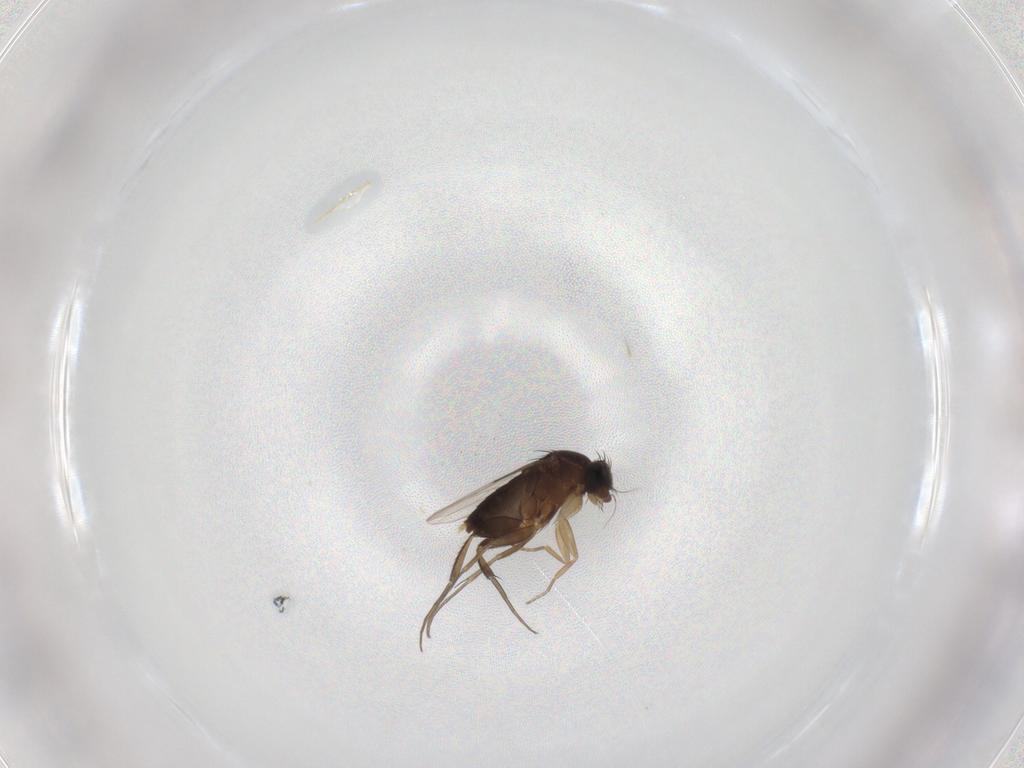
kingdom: Animalia
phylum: Arthropoda
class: Insecta
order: Diptera
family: Phoridae
